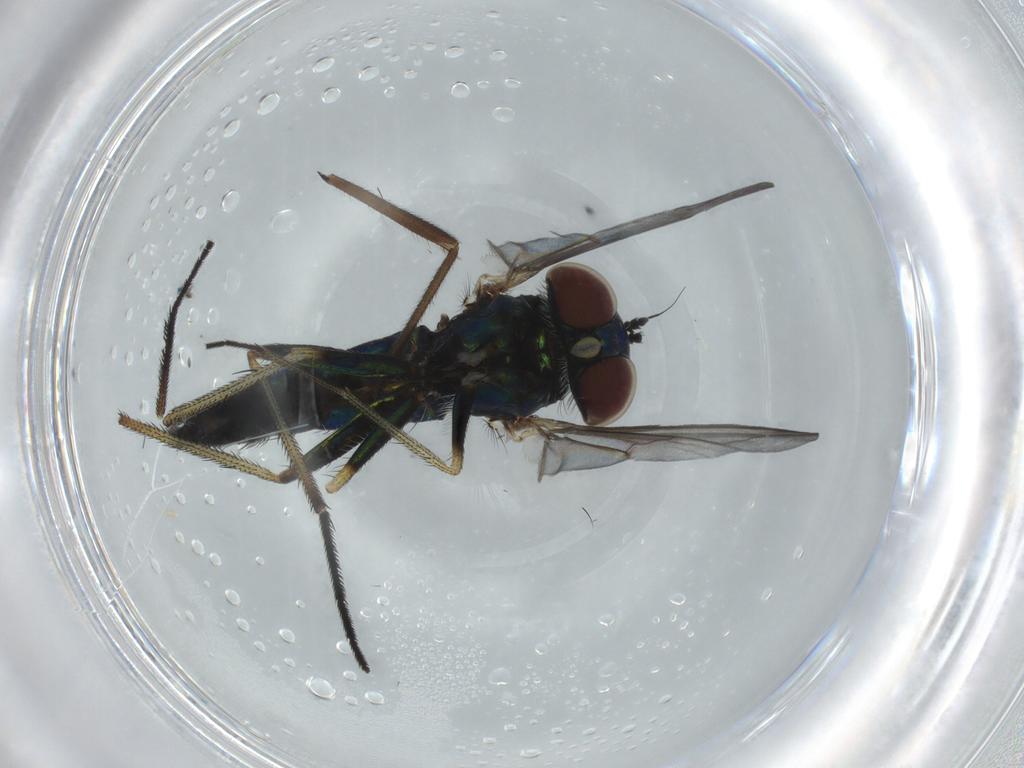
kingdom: Animalia
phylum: Arthropoda
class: Insecta
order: Diptera
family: Dolichopodidae
